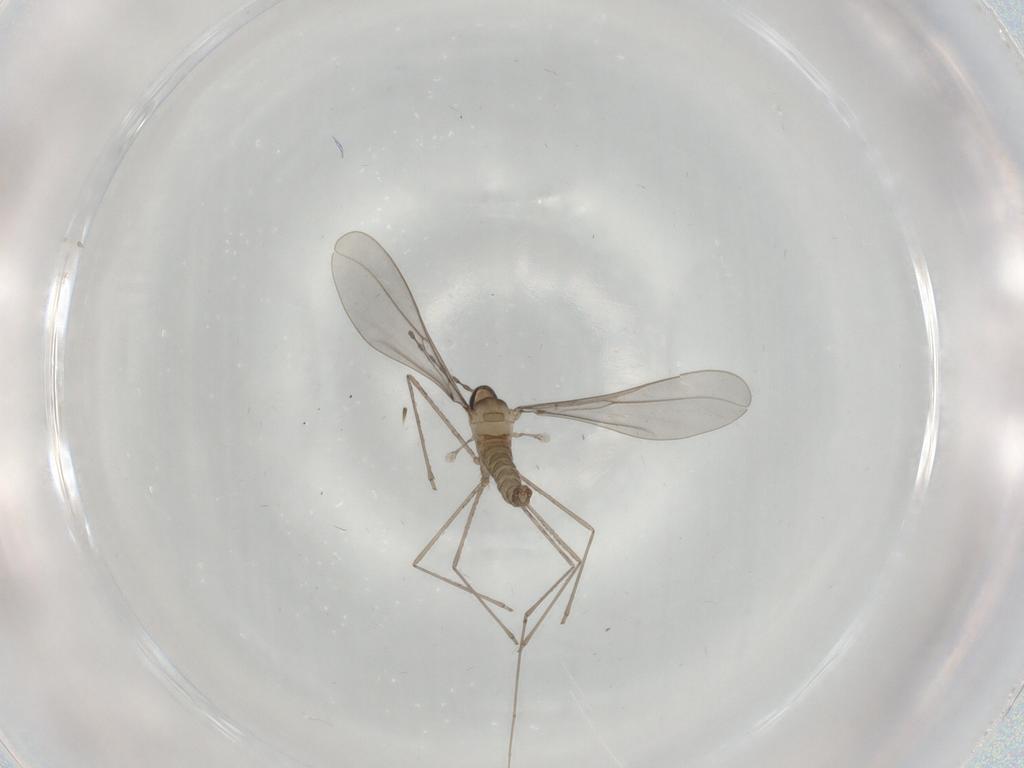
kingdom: Animalia
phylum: Arthropoda
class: Insecta
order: Diptera
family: Cecidomyiidae
